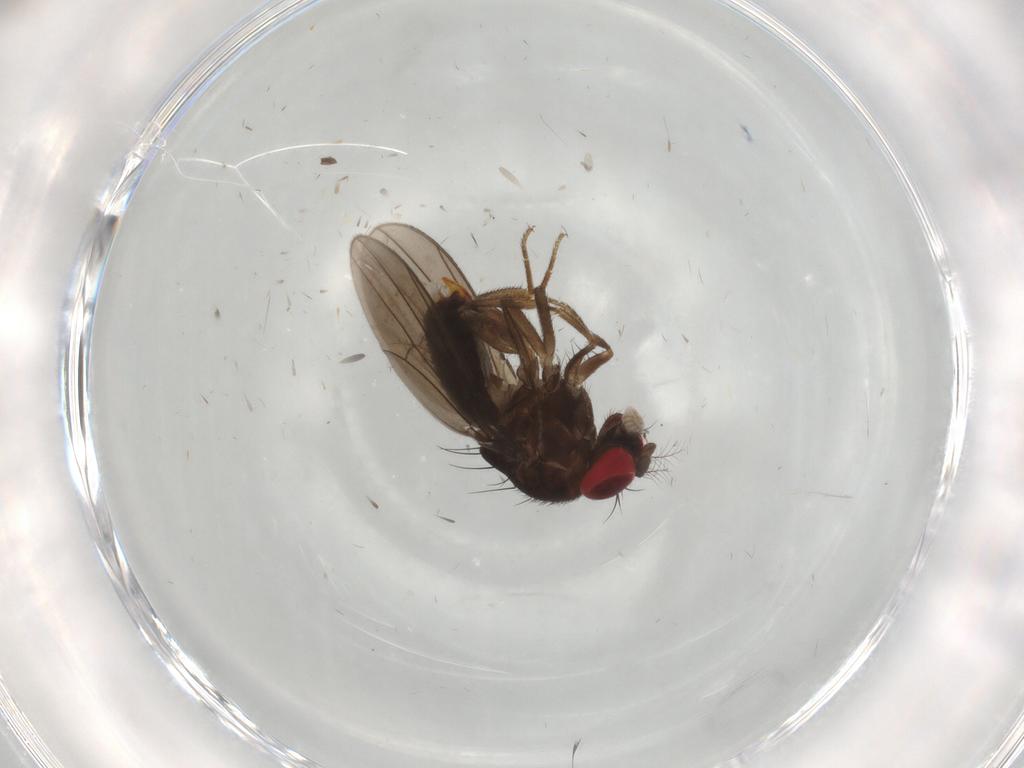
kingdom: Animalia
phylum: Arthropoda
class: Insecta
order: Diptera
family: Drosophilidae
